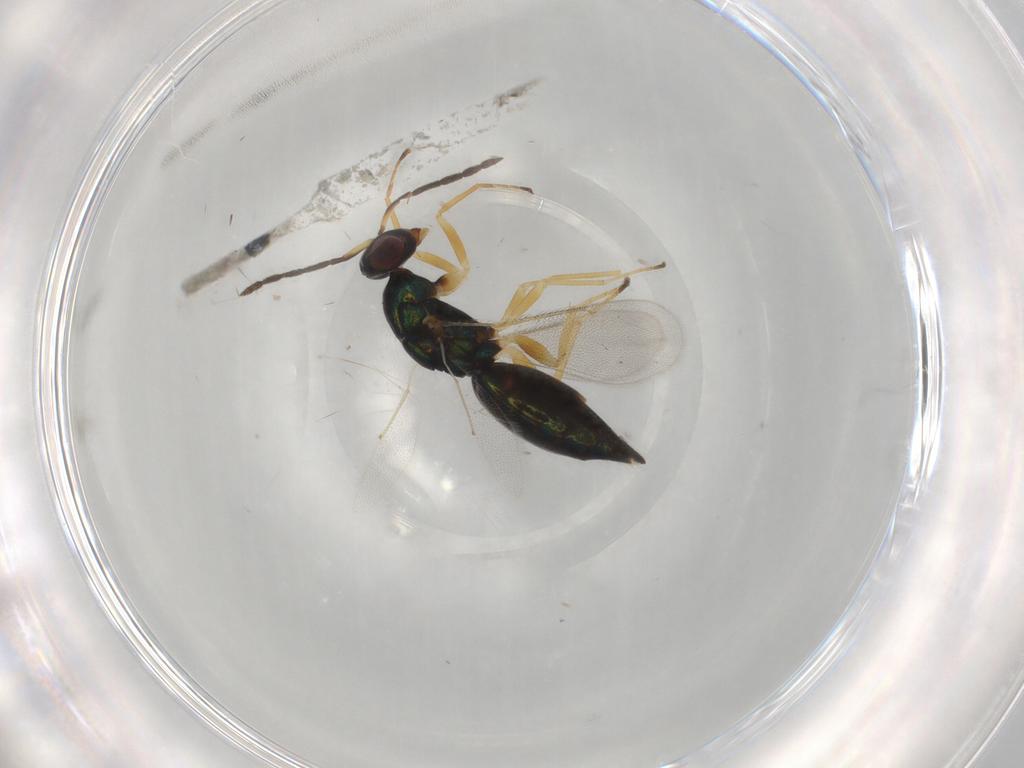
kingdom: Animalia
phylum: Arthropoda
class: Insecta
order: Hymenoptera
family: Eulophidae
